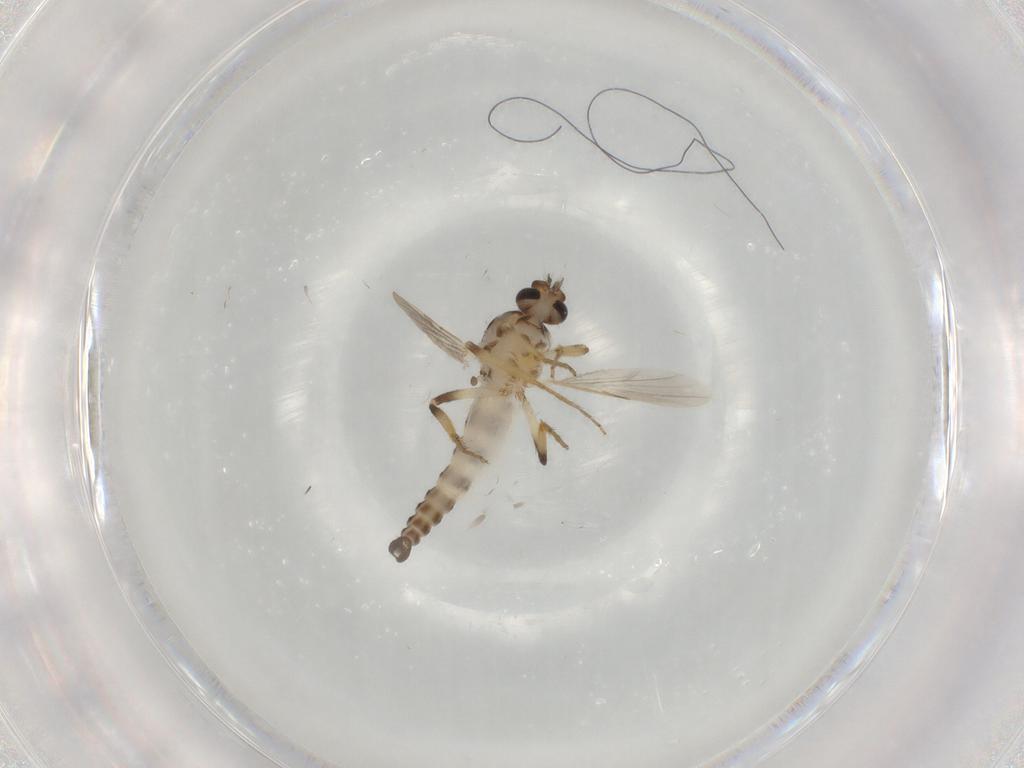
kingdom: Animalia
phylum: Arthropoda
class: Insecta
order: Diptera
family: Ceratopogonidae
